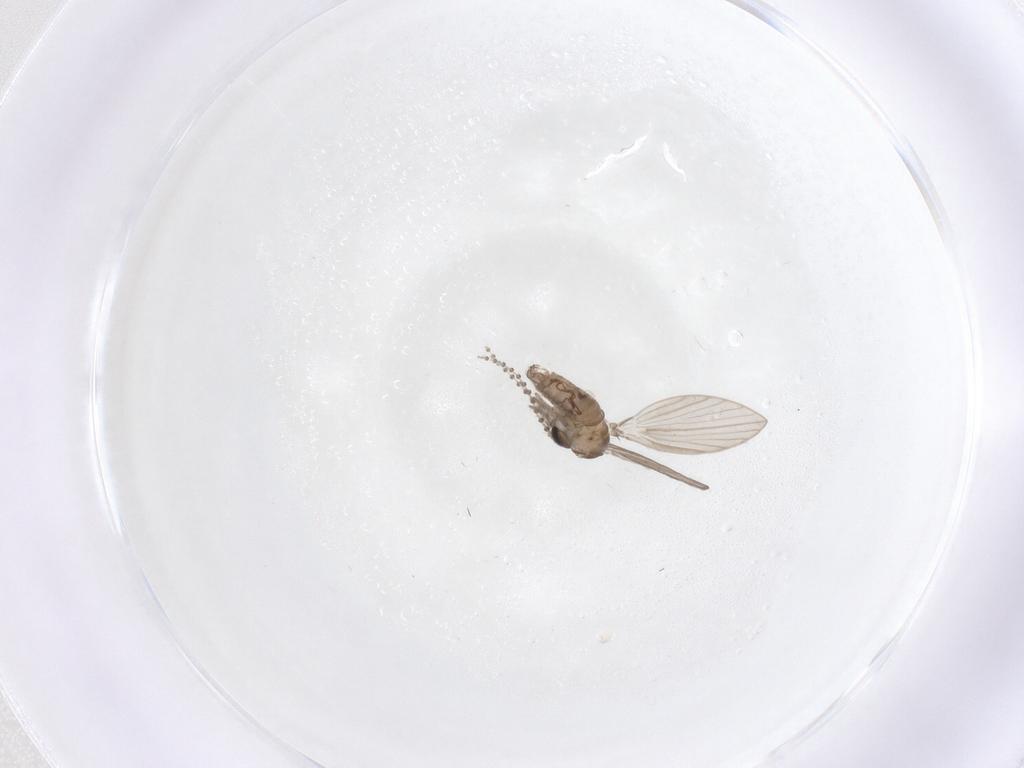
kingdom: Animalia
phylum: Arthropoda
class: Insecta
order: Diptera
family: Psychodidae
